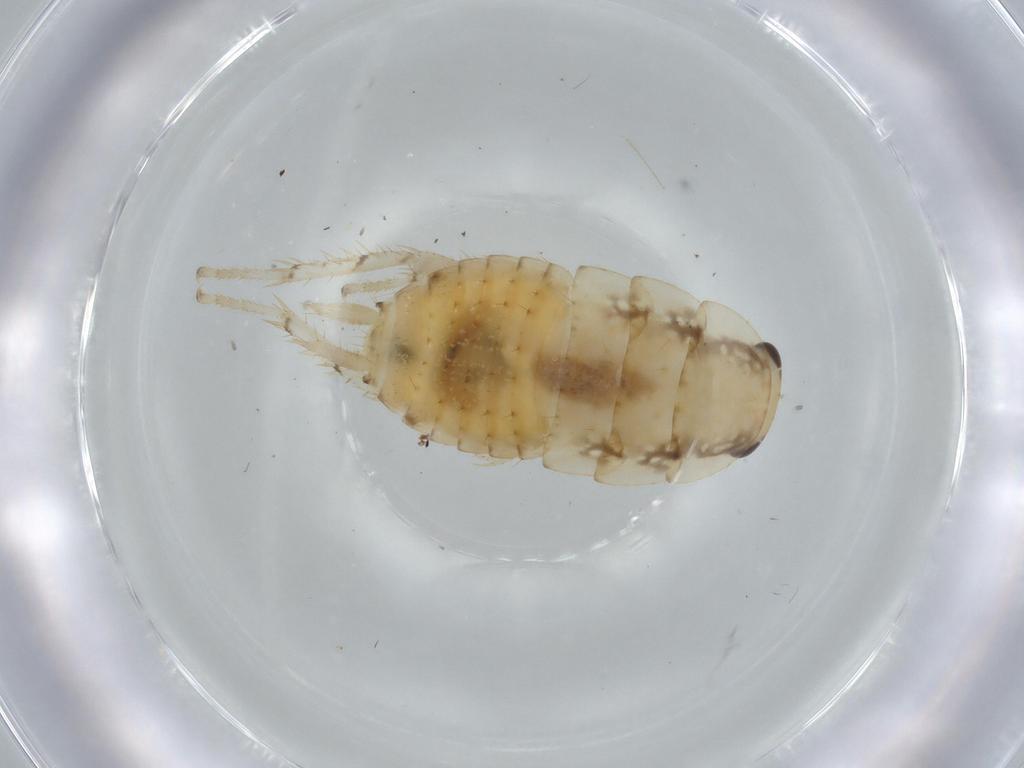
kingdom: Animalia
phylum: Arthropoda
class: Insecta
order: Blattodea
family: Ectobiidae
